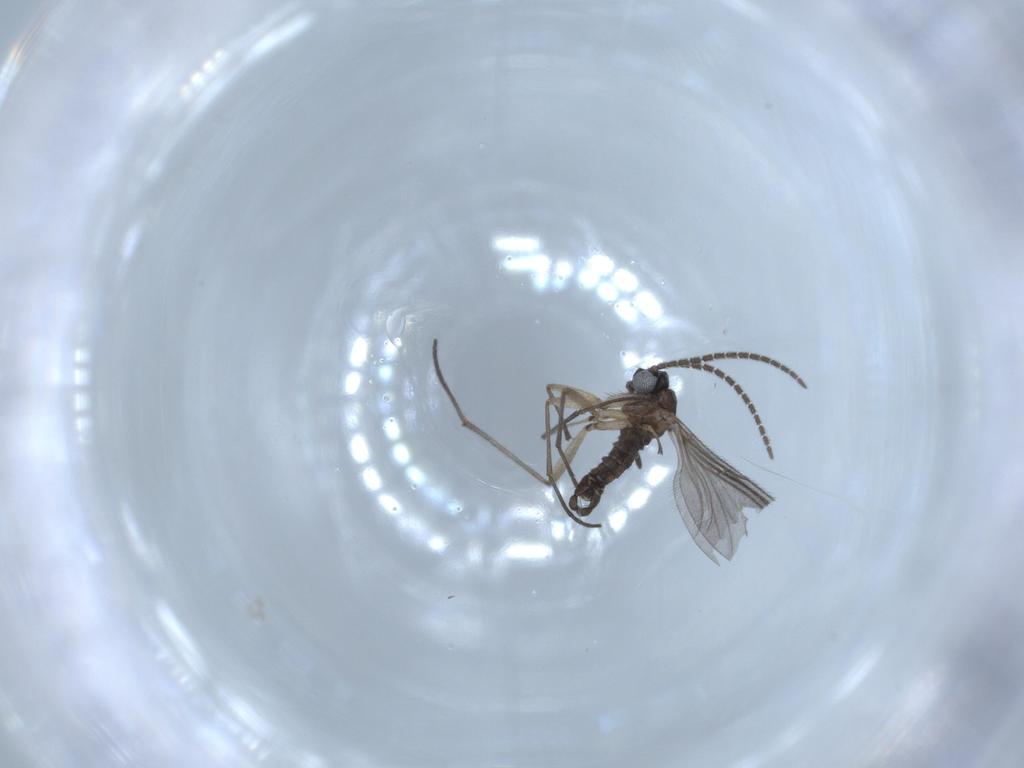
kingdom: Animalia
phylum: Arthropoda
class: Insecta
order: Diptera
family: Sciaridae
